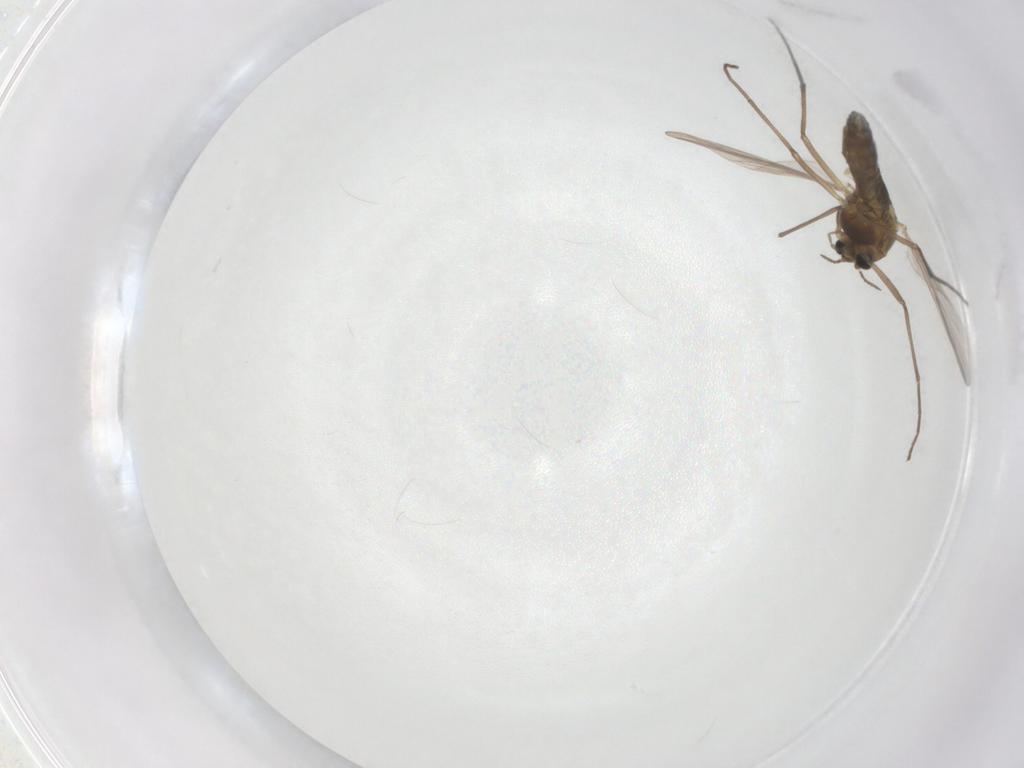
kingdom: Animalia
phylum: Arthropoda
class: Insecta
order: Diptera
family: Chironomidae
